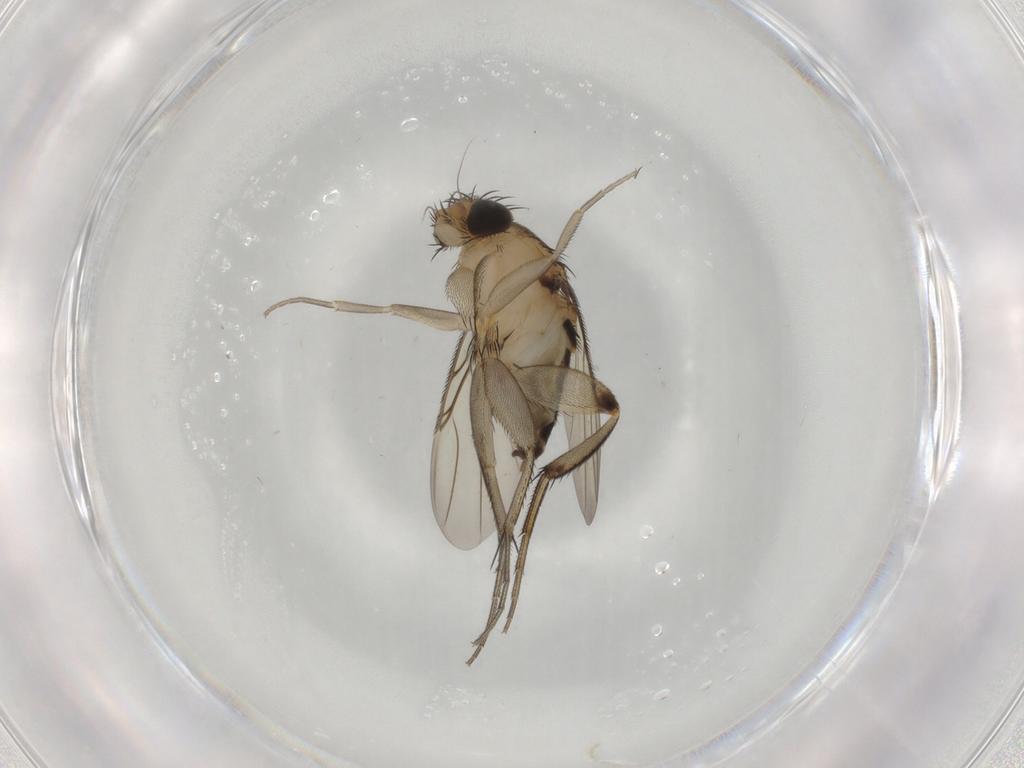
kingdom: Animalia
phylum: Arthropoda
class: Insecta
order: Diptera
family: Phoridae
